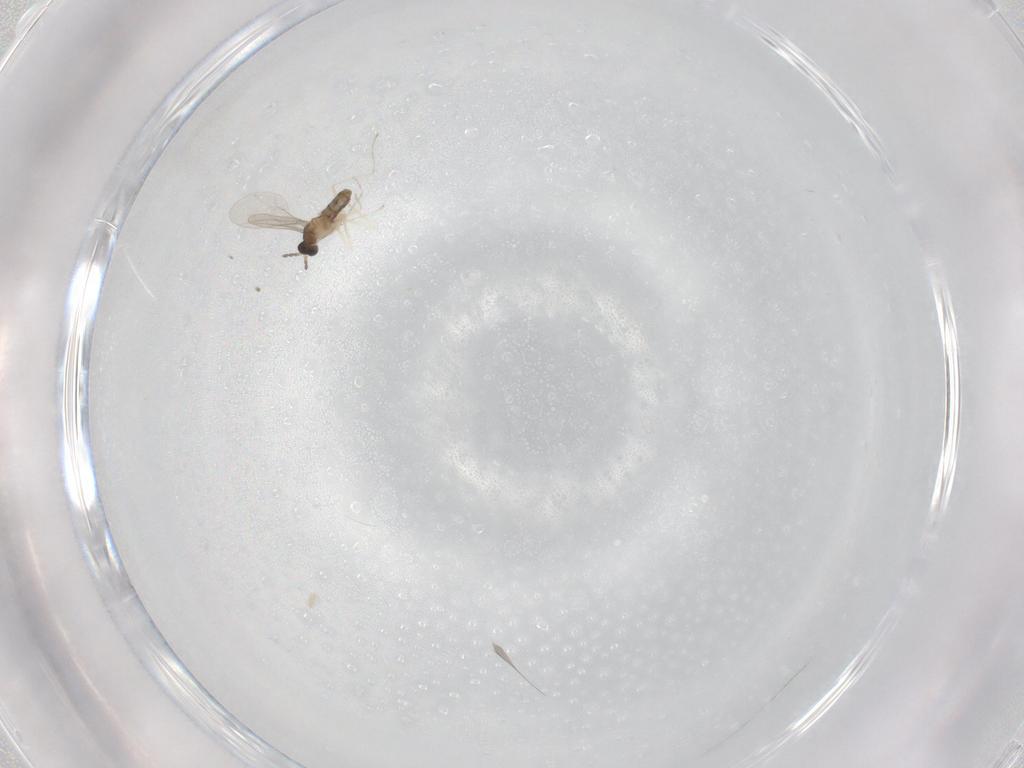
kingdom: Animalia
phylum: Arthropoda
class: Insecta
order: Diptera
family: Cecidomyiidae
